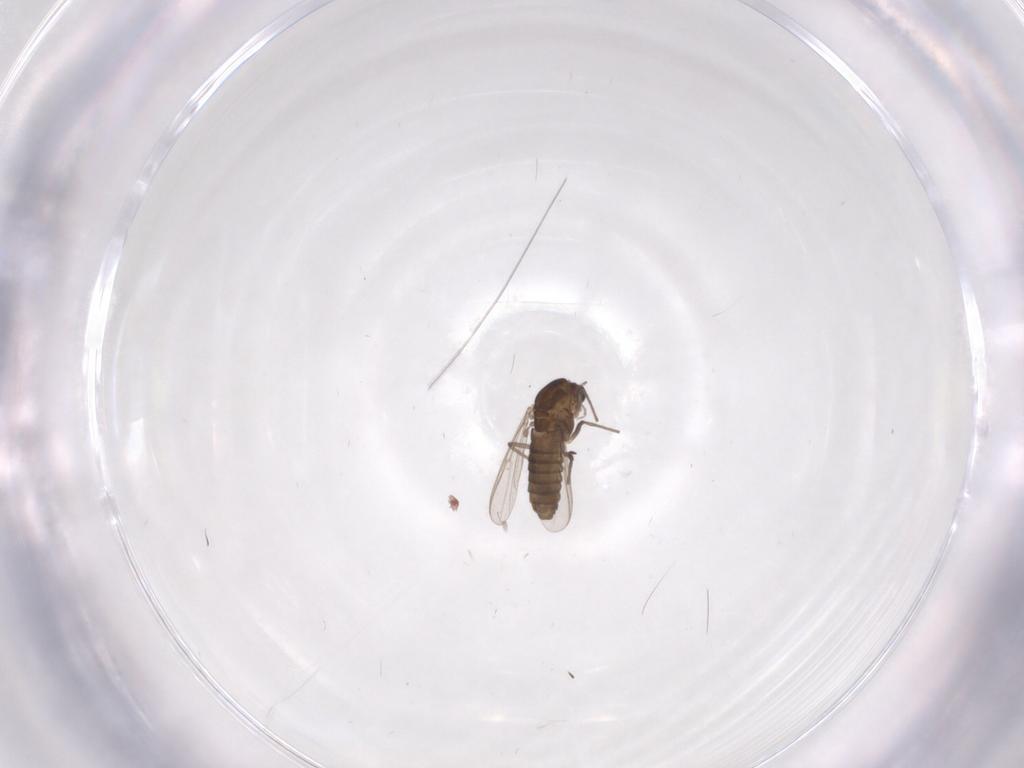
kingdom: Animalia
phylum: Arthropoda
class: Insecta
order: Diptera
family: Chironomidae
